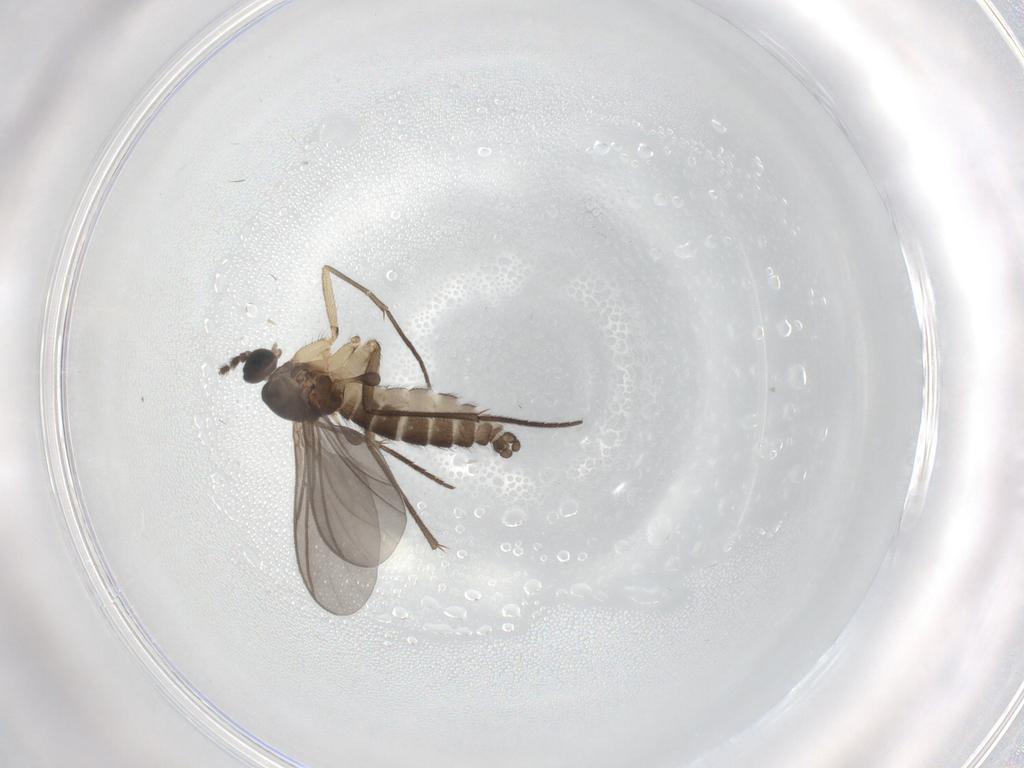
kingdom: Animalia
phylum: Arthropoda
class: Insecta
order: Diptera
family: Sciaridae
